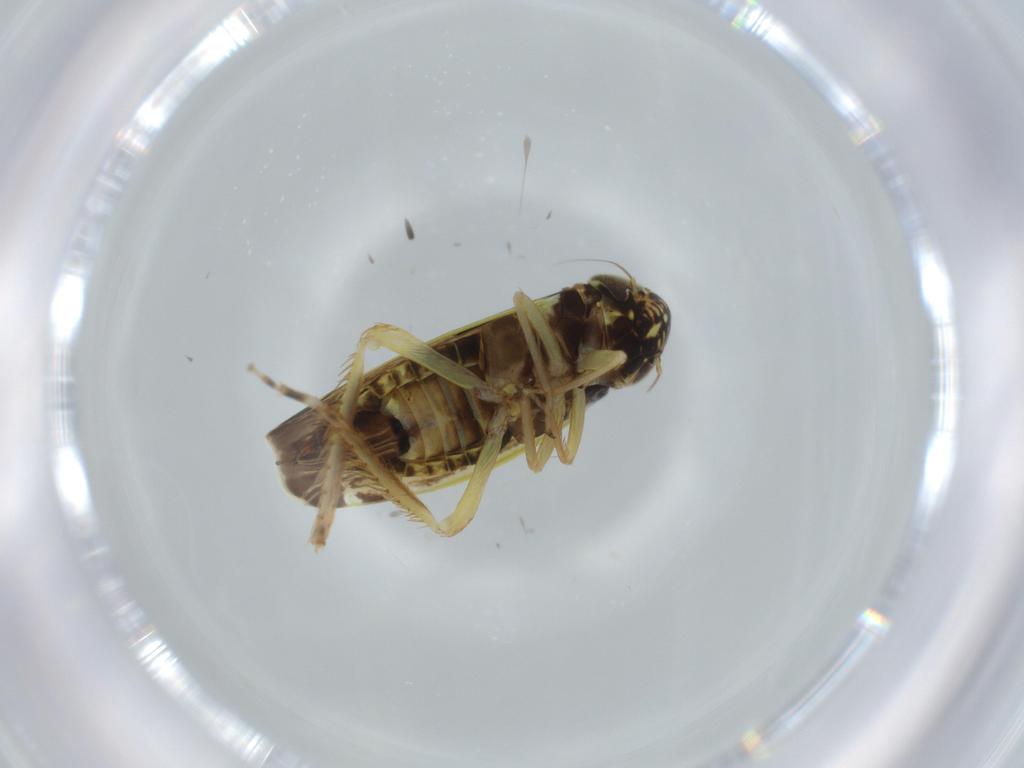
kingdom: Animalia
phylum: Arthropoda
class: Insecta
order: Hemiptera
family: Cicadellidae
